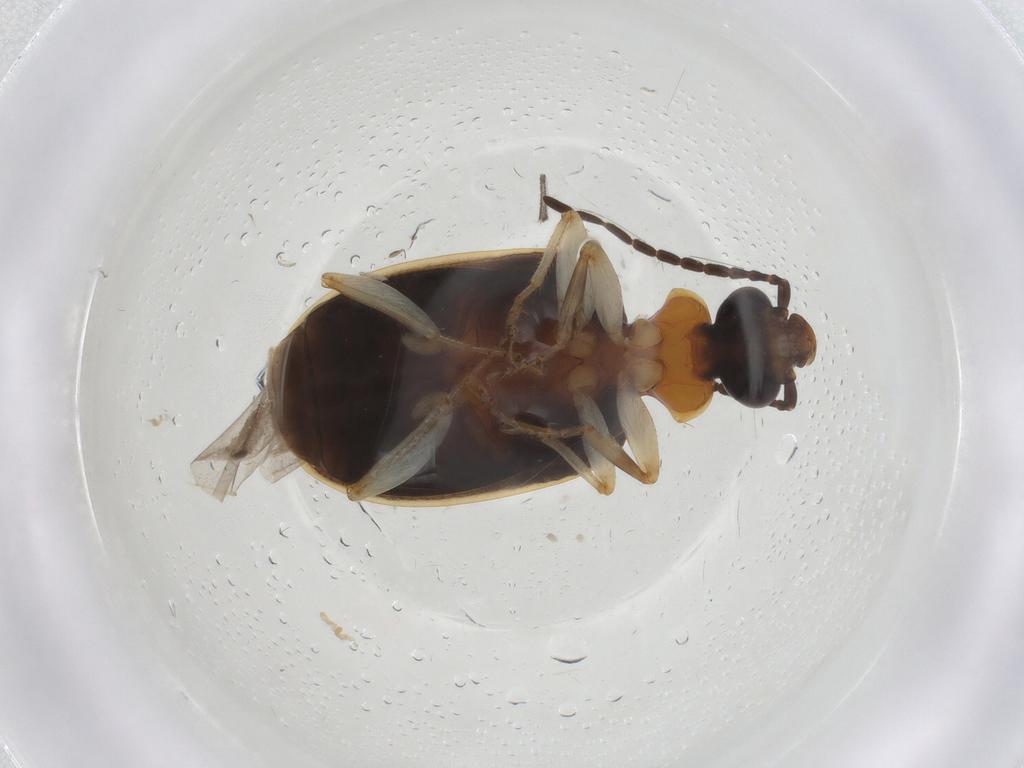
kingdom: Animalia
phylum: Arthropoda
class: Insecta
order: Coleoptera
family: Carabidae
